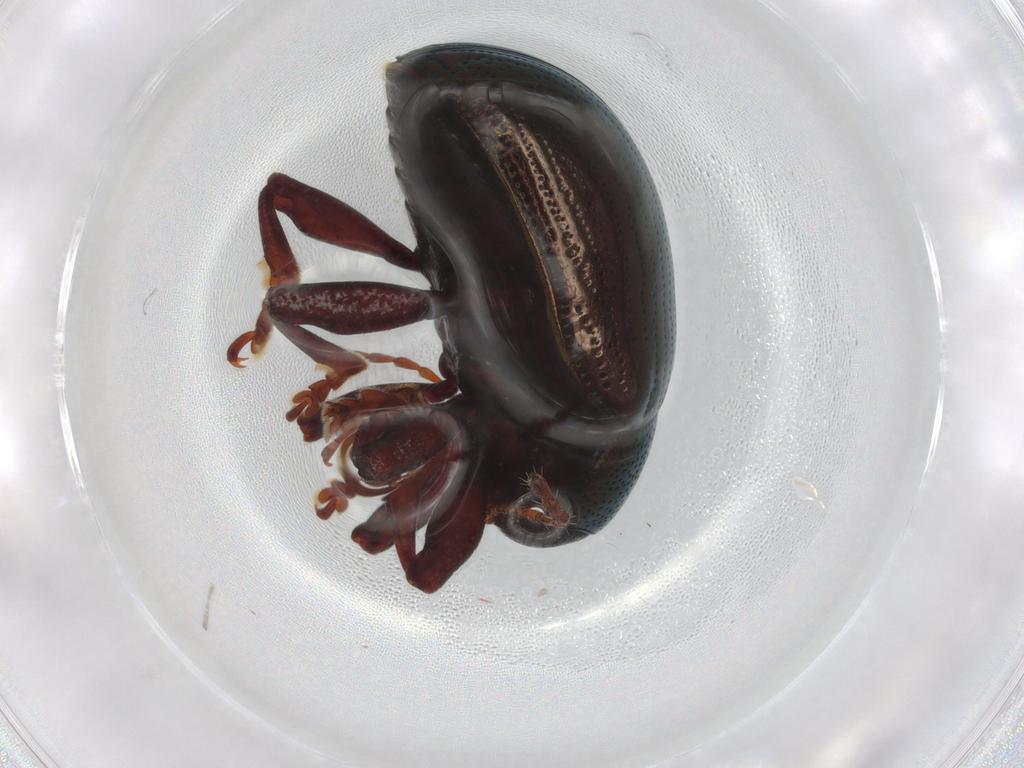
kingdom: Animalia
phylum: Arthropoda
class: Insecta
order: Coleoptera
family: Chrysomelidae
